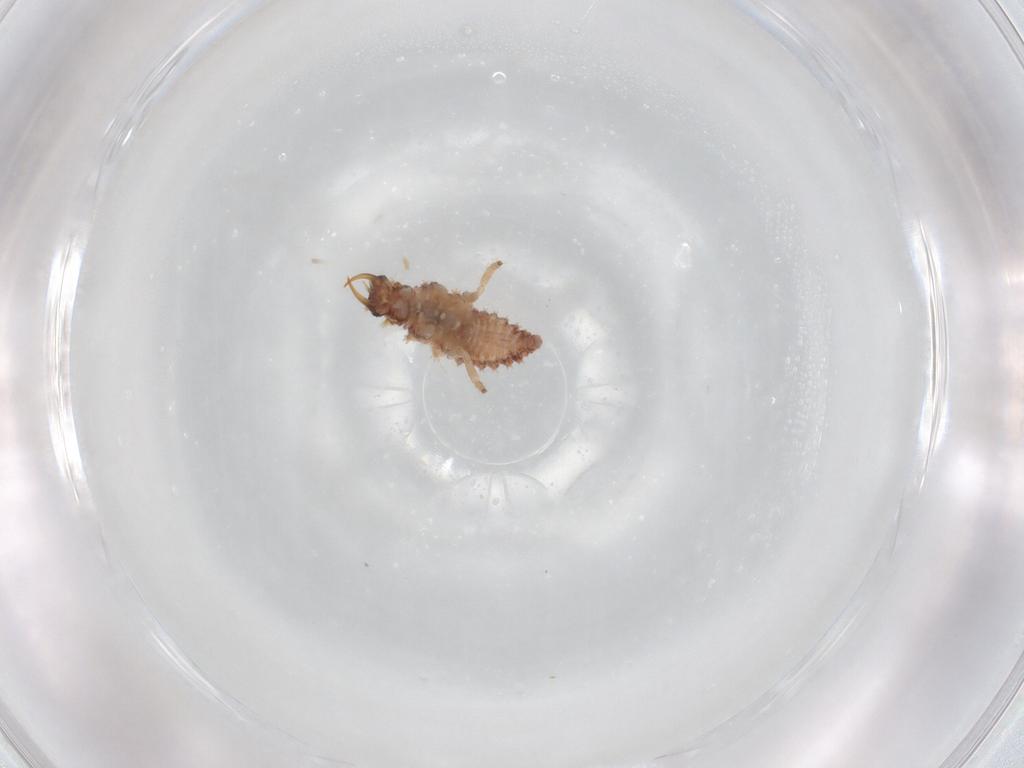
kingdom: Animalia
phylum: Arthropoda
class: Insecta
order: Neuroptera
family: Chrysopidae
